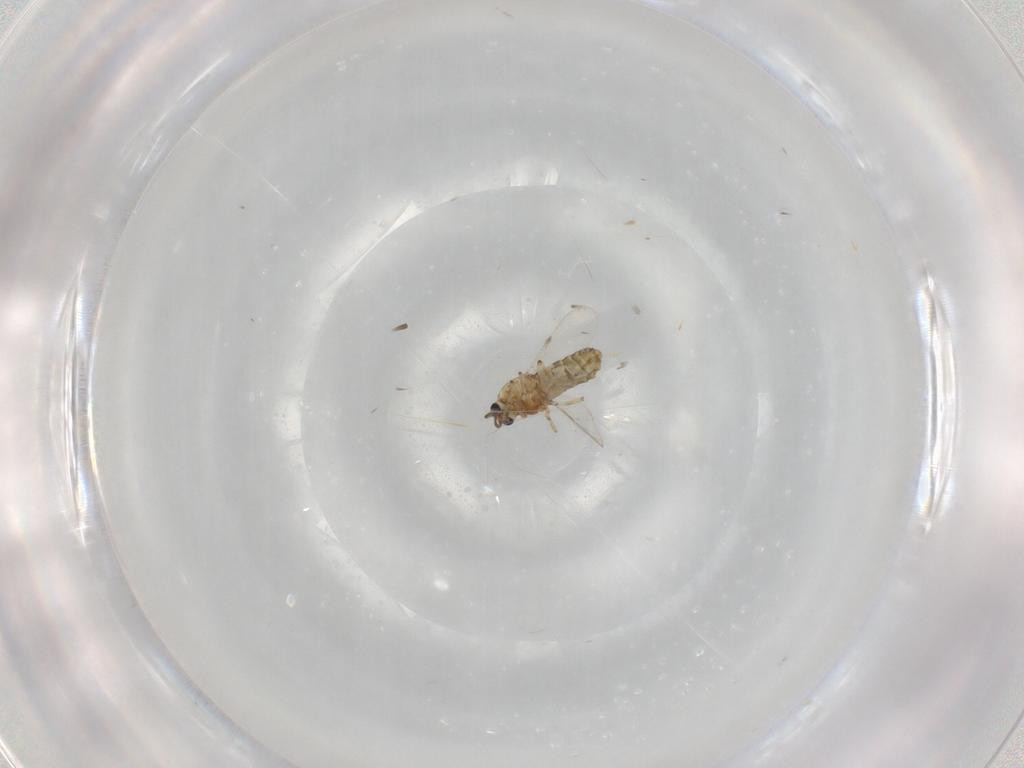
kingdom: Animalia
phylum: Arthropoda
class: Insecta
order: Diptera
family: Ceratopogonidae
